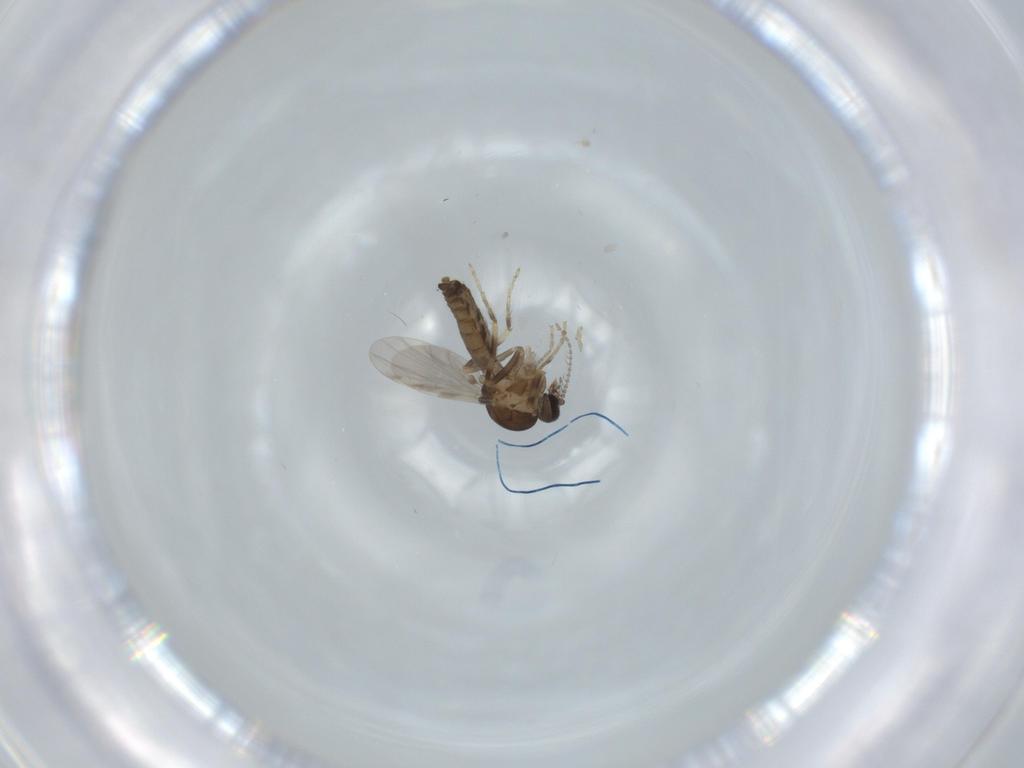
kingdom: Animalia
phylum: Arthropoda
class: Insecta
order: Diptera
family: Ceratopogonidae
